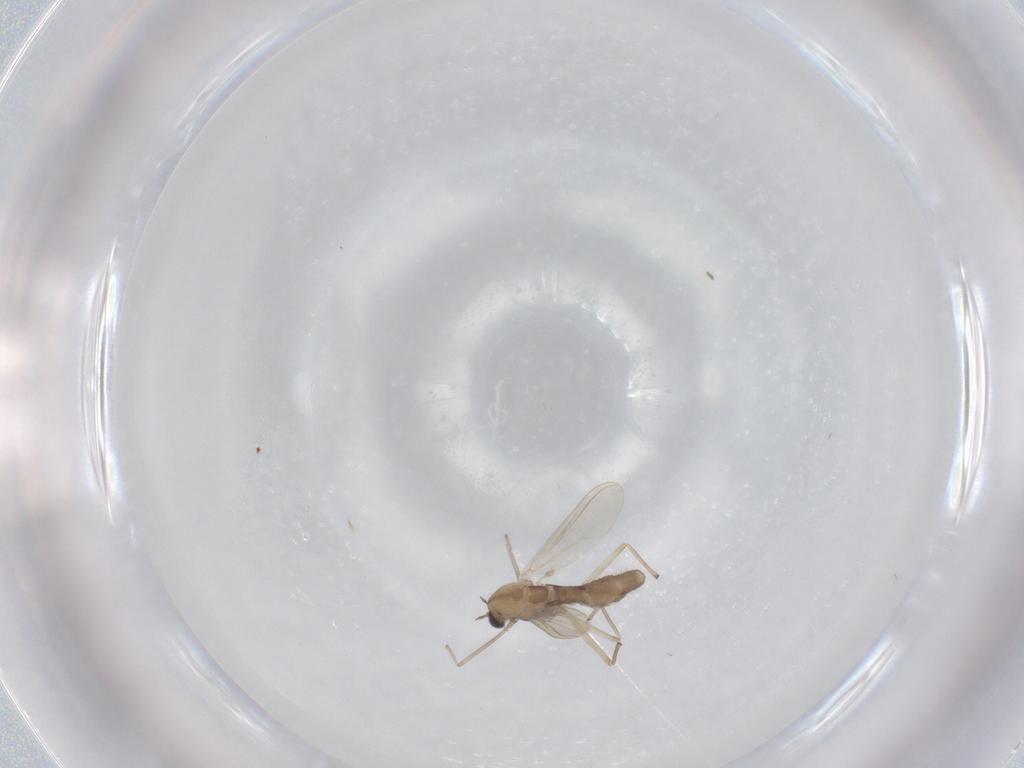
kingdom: Animalia
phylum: Arthropoda
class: Insecta
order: Diptera
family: Chironomidae
